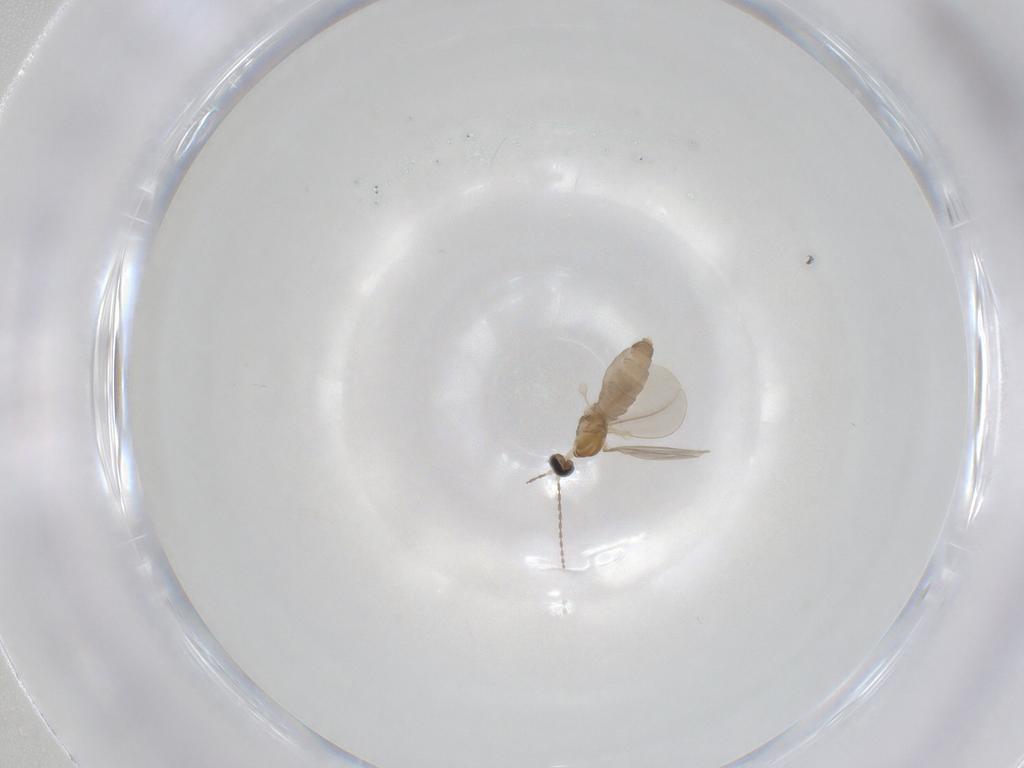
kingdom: Animalia
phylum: Arthropoda
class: Insecta
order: Diptera
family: Cecidomyiidae
